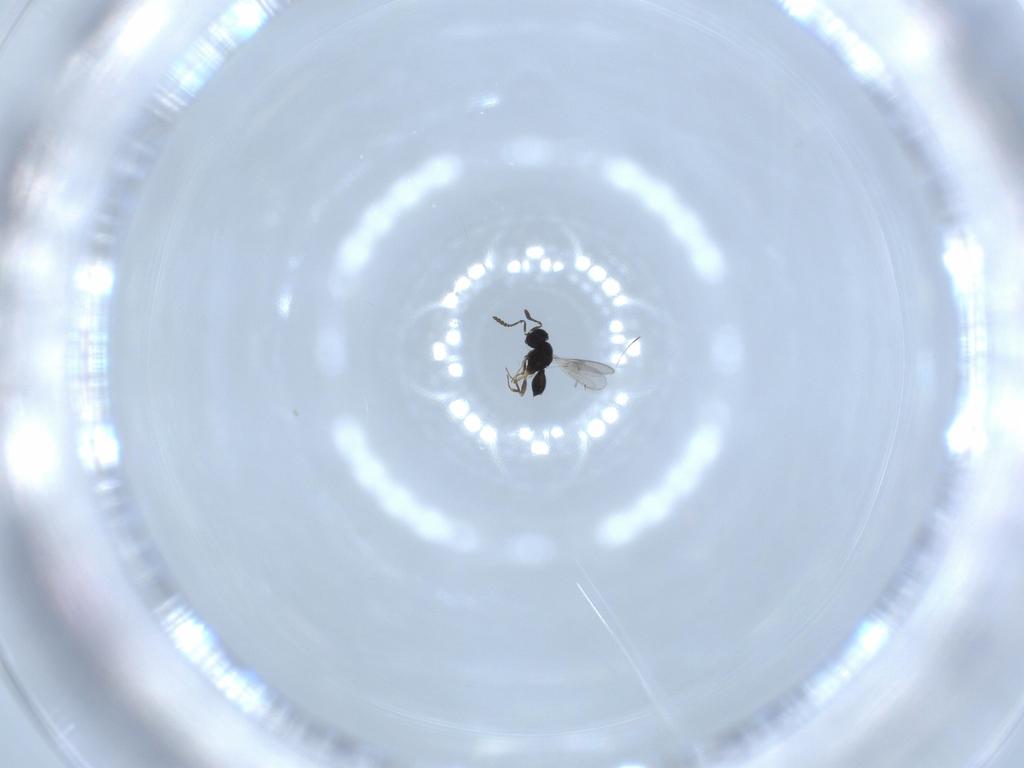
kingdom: Animalia
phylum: Arthropoda
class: Insecta
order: Hymenoptera
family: Scelionidae
